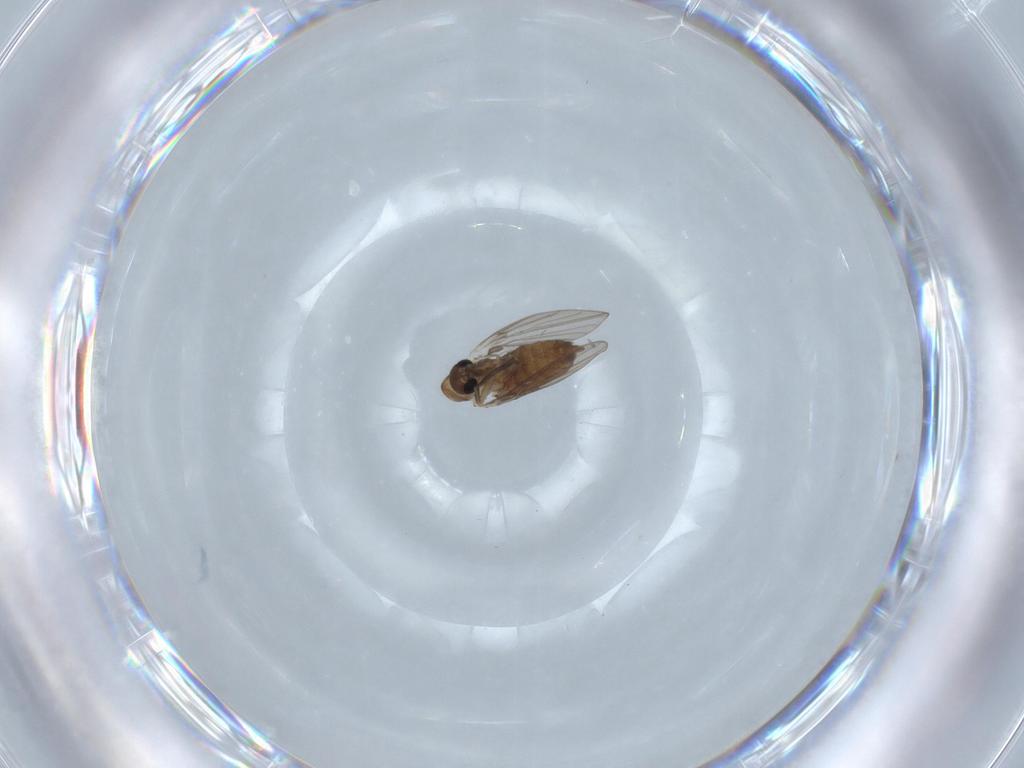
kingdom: Animalia
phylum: Arthropoda
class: Insecta
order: Diptera
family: Psychodidae
